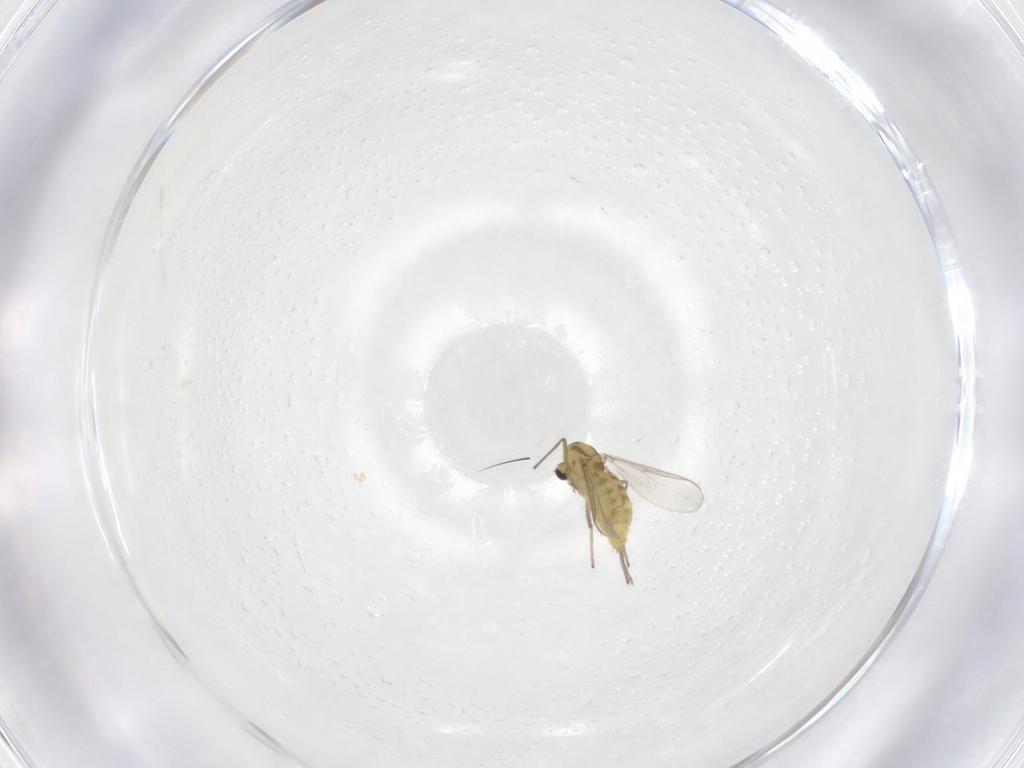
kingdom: Animalia
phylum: Arthropoda
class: Insecta
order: Diptera
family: Chironomidae
